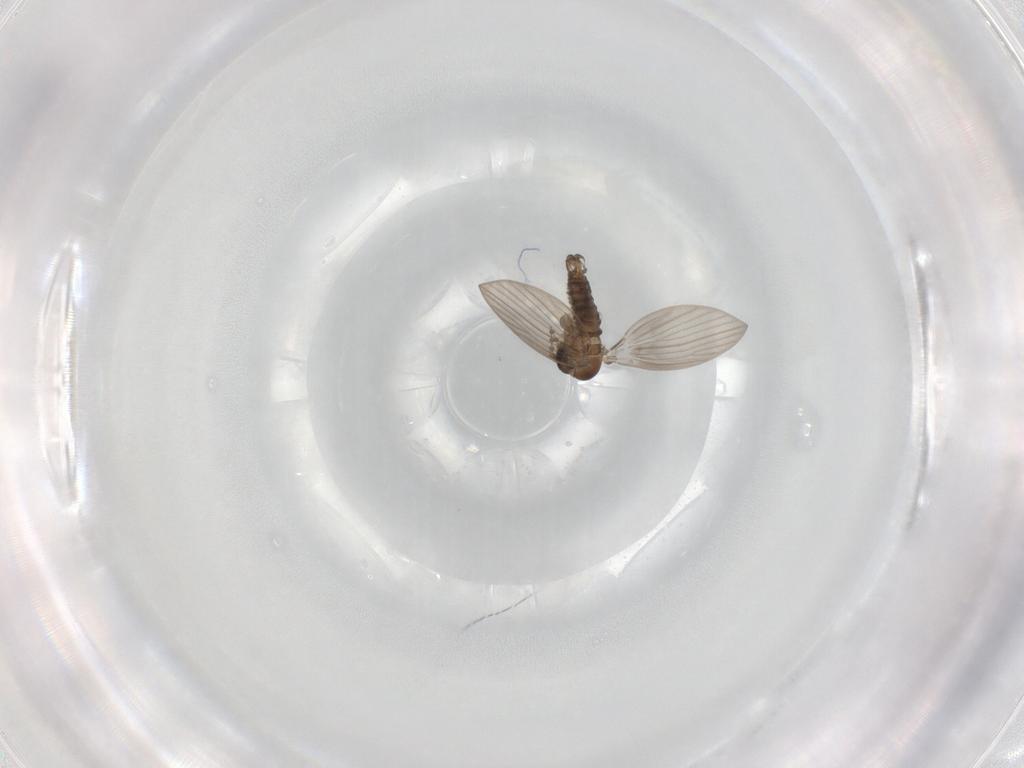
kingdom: Animalia
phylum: Arthropoda
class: Insecta
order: Diptera
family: Psychodidae
